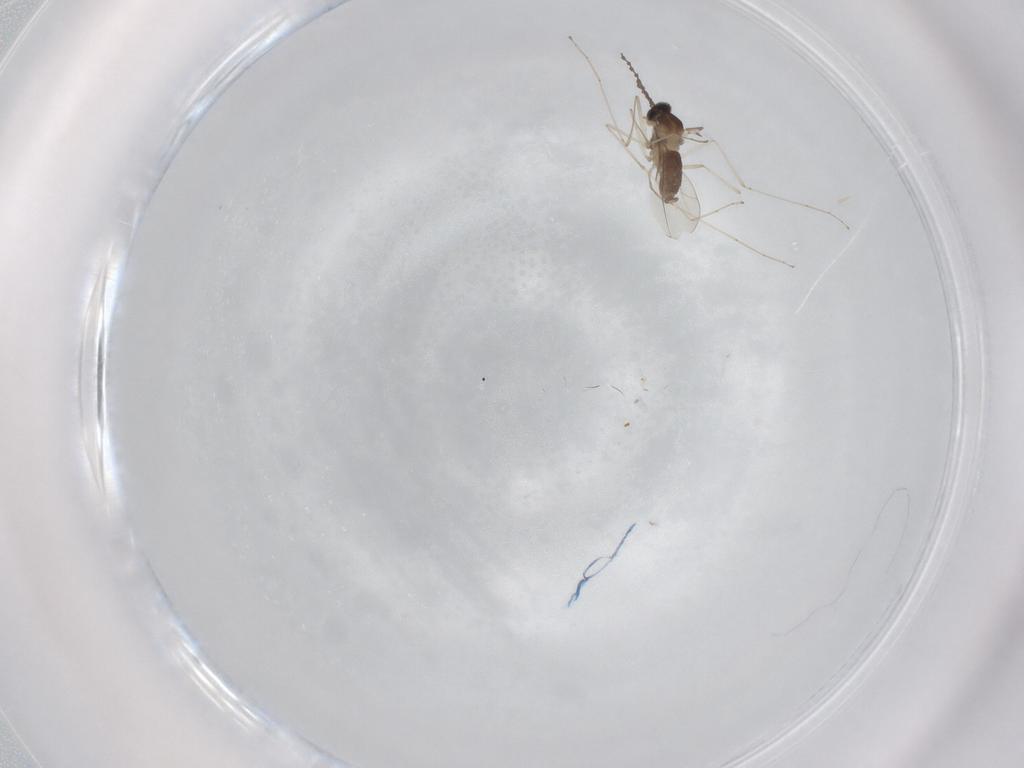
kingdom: Animalia
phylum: Arthropoda
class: Insecta
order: Diptera
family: Cecidomyiidae
